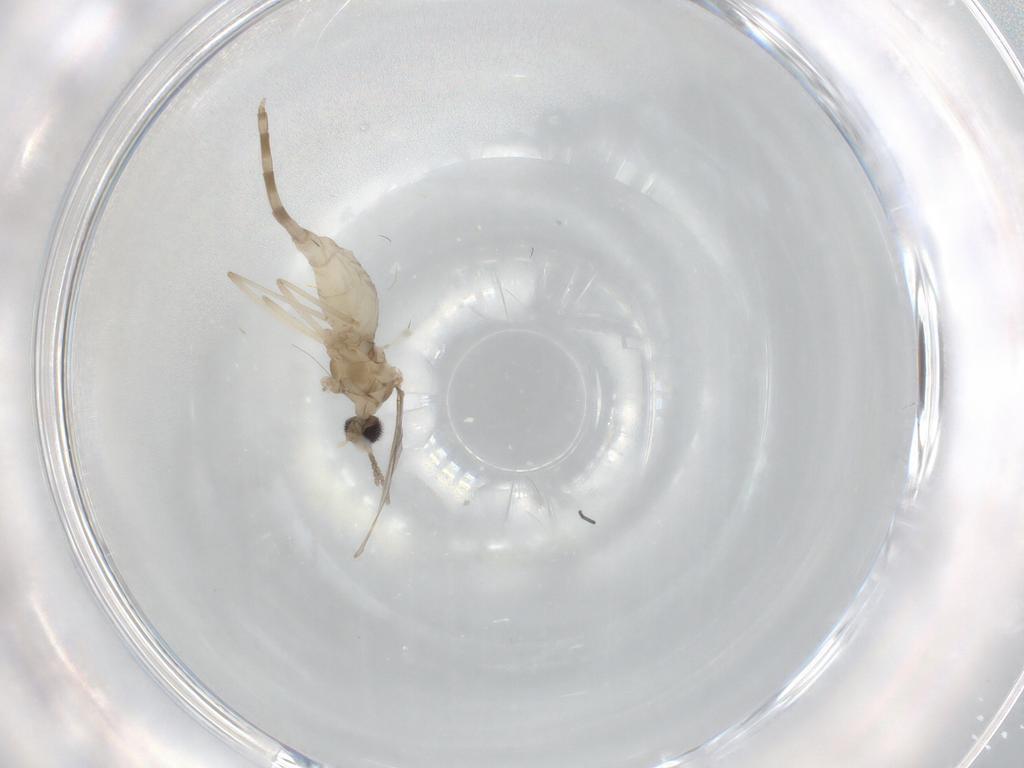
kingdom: Animalia
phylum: Arthropoda
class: Insecta
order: Diptera
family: Cecidomyiidae
